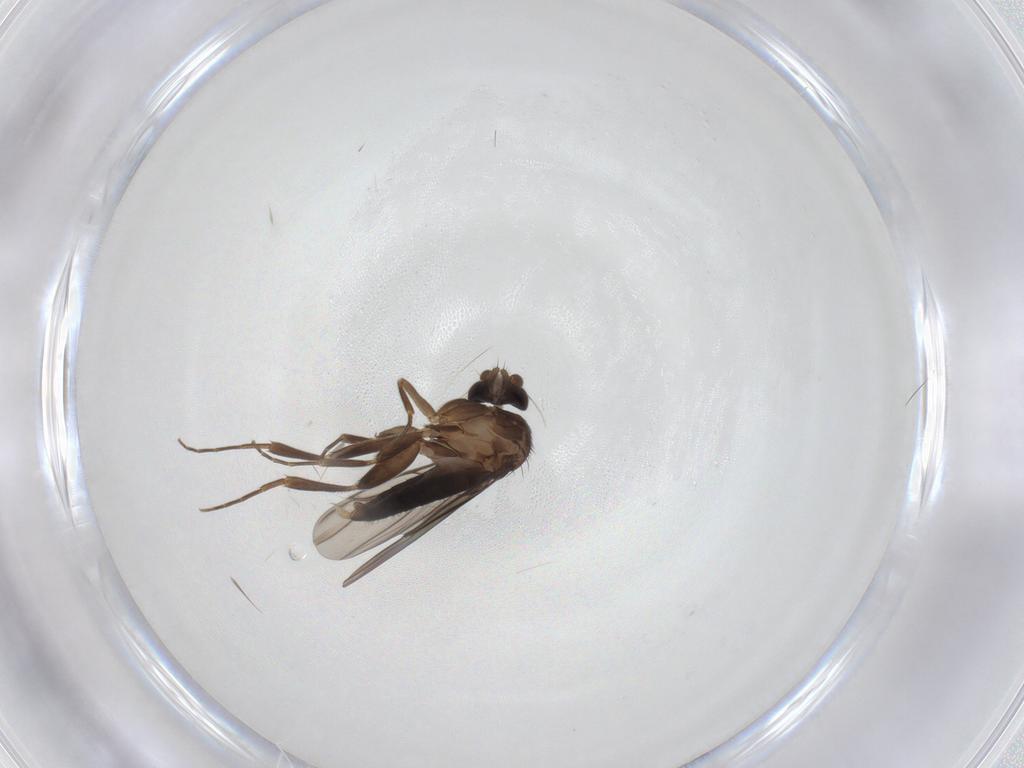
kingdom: Animalia
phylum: Arthropoda
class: Insecta
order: Diptera
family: Phoridae
